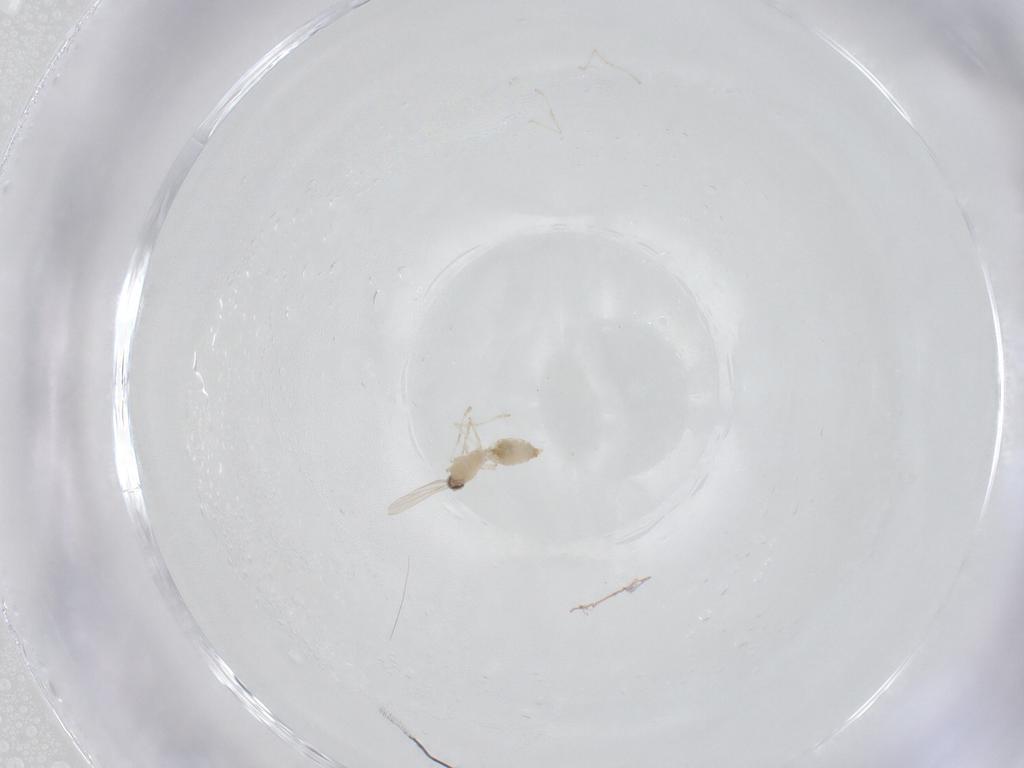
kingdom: Animalia
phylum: Arthropoda
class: Insecta
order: Diptera
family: Cecidomyiidae
